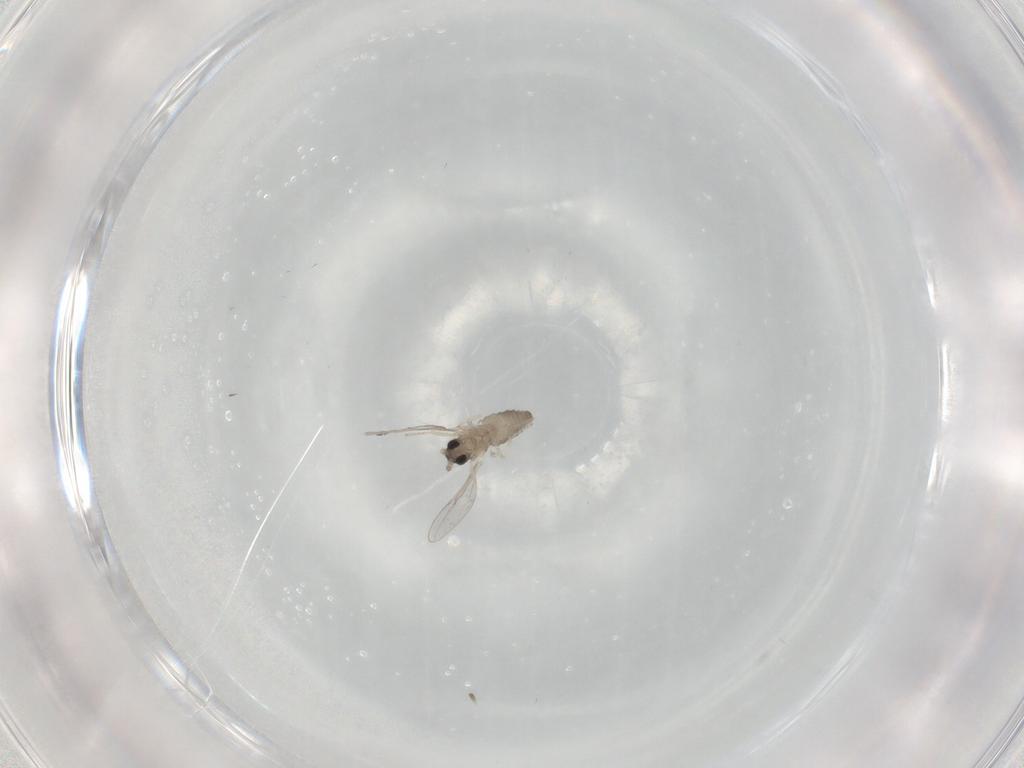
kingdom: Animalia
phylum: Arthropoda
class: Insecta
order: Diptera
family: Cecidomyiidae
